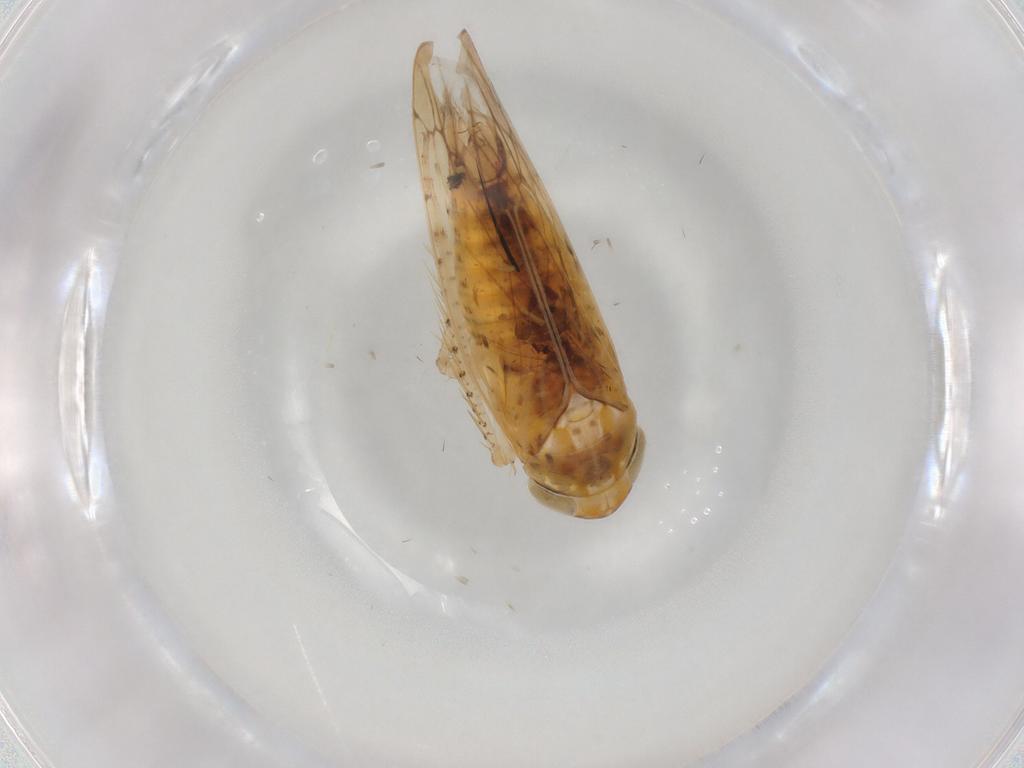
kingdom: Animalia
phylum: Arthropoda
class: Insecta
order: Hemiptera
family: Cicadellidae
